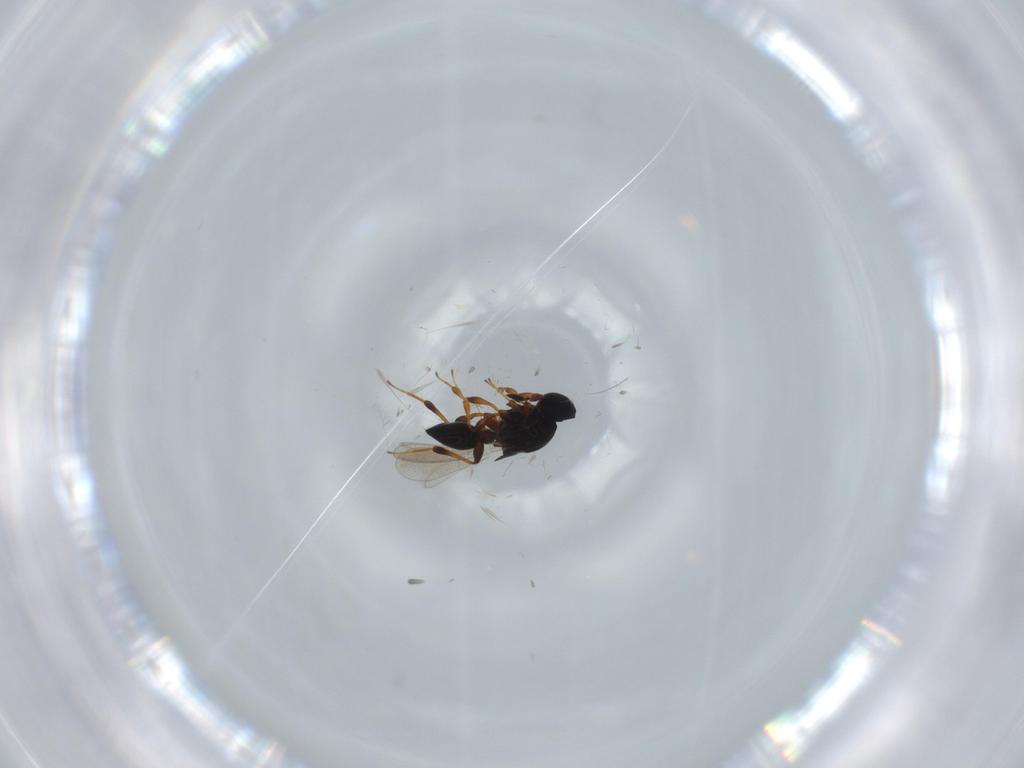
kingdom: Animalia
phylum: Arthropoda
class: Insecta
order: Hymenoptera
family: Platygastridae
